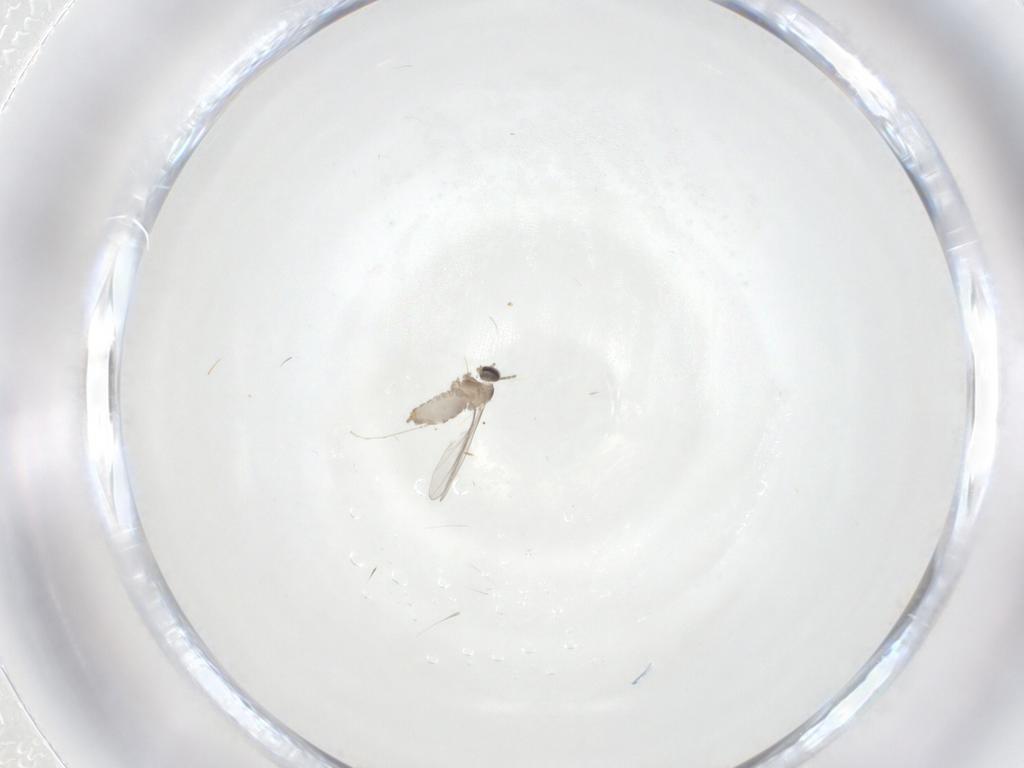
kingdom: Animalia
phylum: Arthropoda
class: Insecta
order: Diptera
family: Cecidomyiidae
